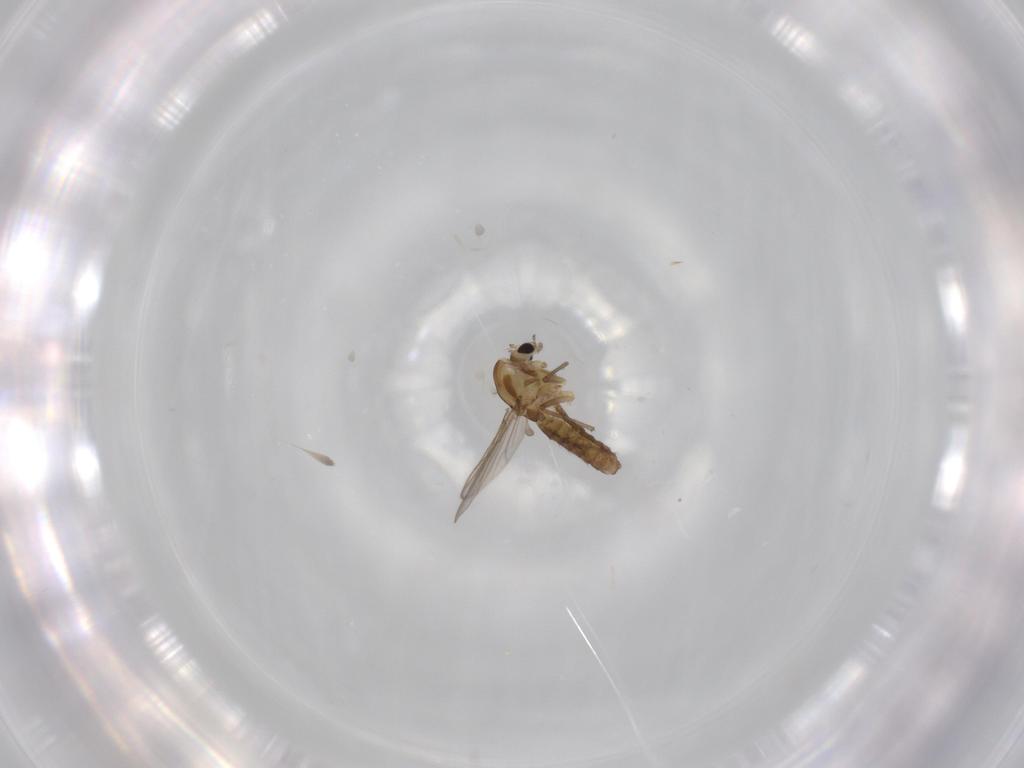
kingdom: Animalia
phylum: Arthropoda
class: Insecta
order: Diptera
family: Chironomidae
